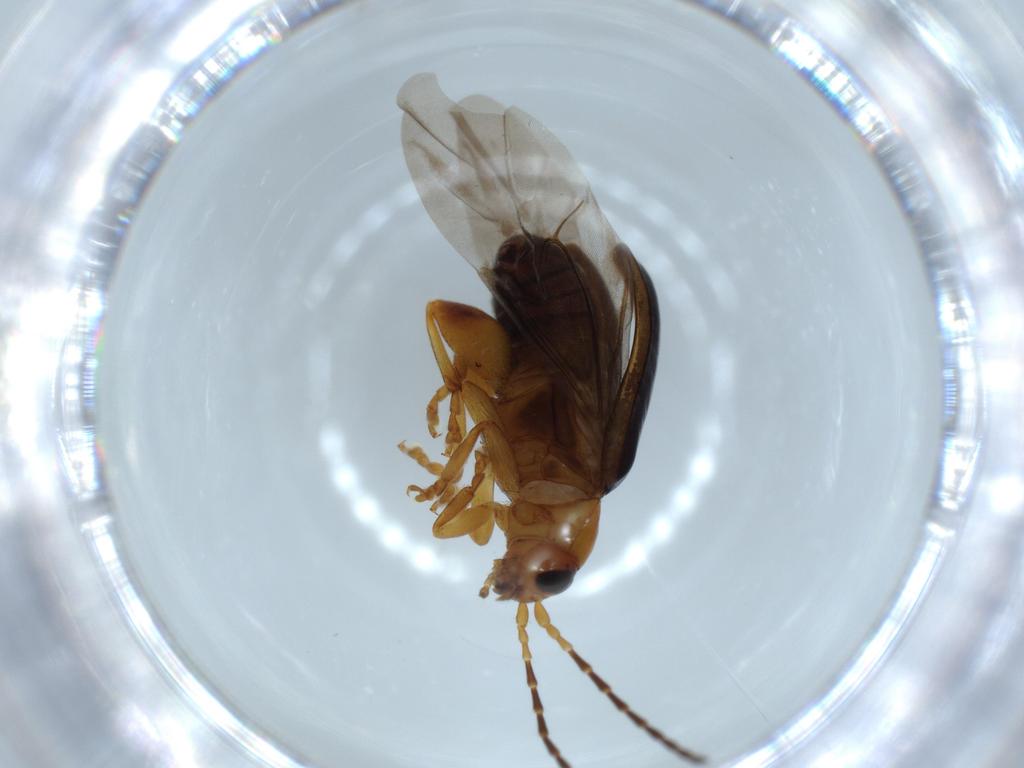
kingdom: Animalia
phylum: Arthropoda
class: Insecta
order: Coleoptera
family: Chrysomelidae
